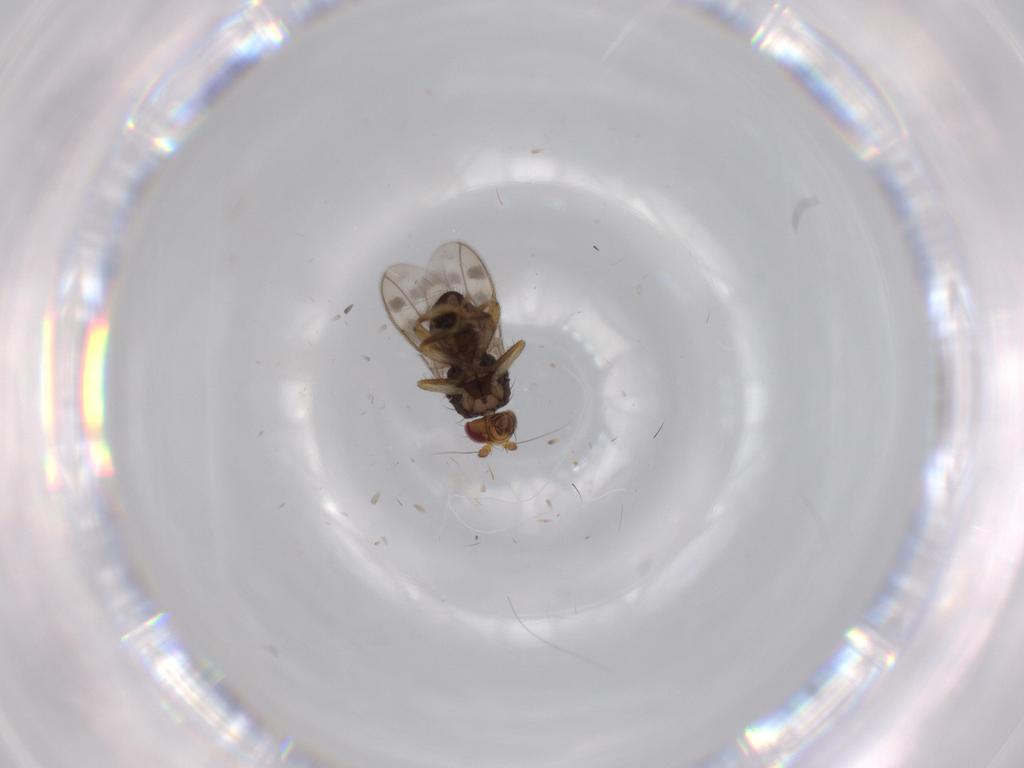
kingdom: Animalia
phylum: Arthropoda
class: Insecta
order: Diptera
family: Sphaeroceridae
